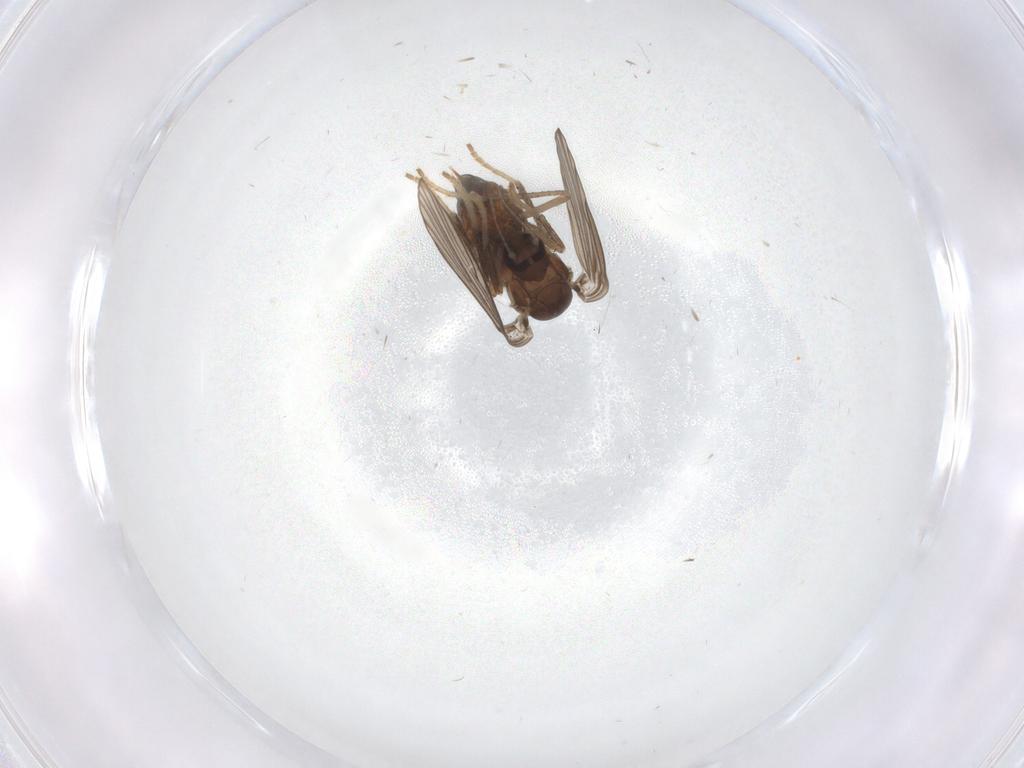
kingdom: Animalia
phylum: Arthropoda
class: Insecta
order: Diptera
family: Psychodidae
